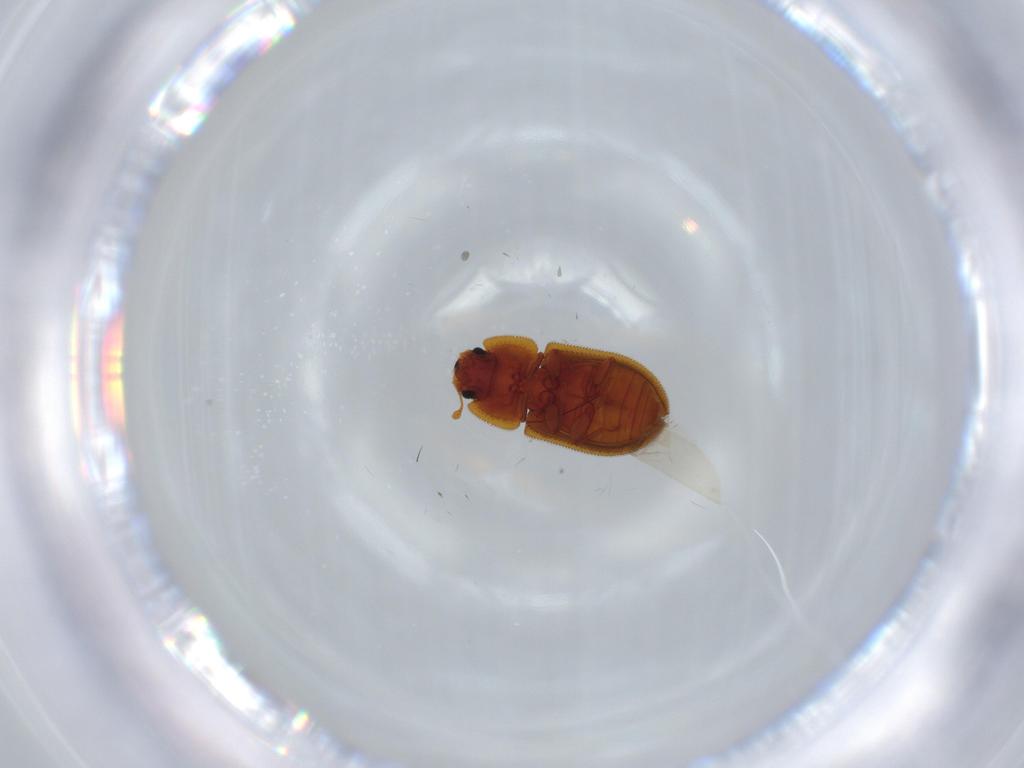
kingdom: Animalia
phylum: Arthropoda
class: Insecta
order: Coleoptera
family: Zopheridae
